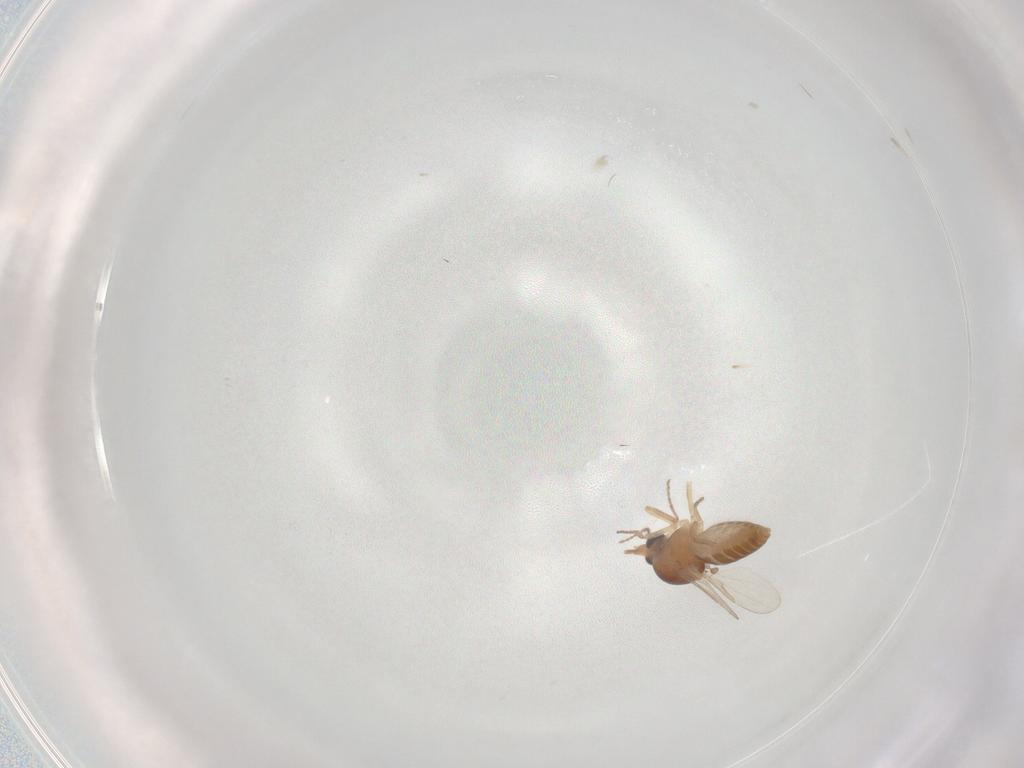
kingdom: Animalia
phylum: Arthropoda
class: Insecta
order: Diptera
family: Ceratopogonidae
